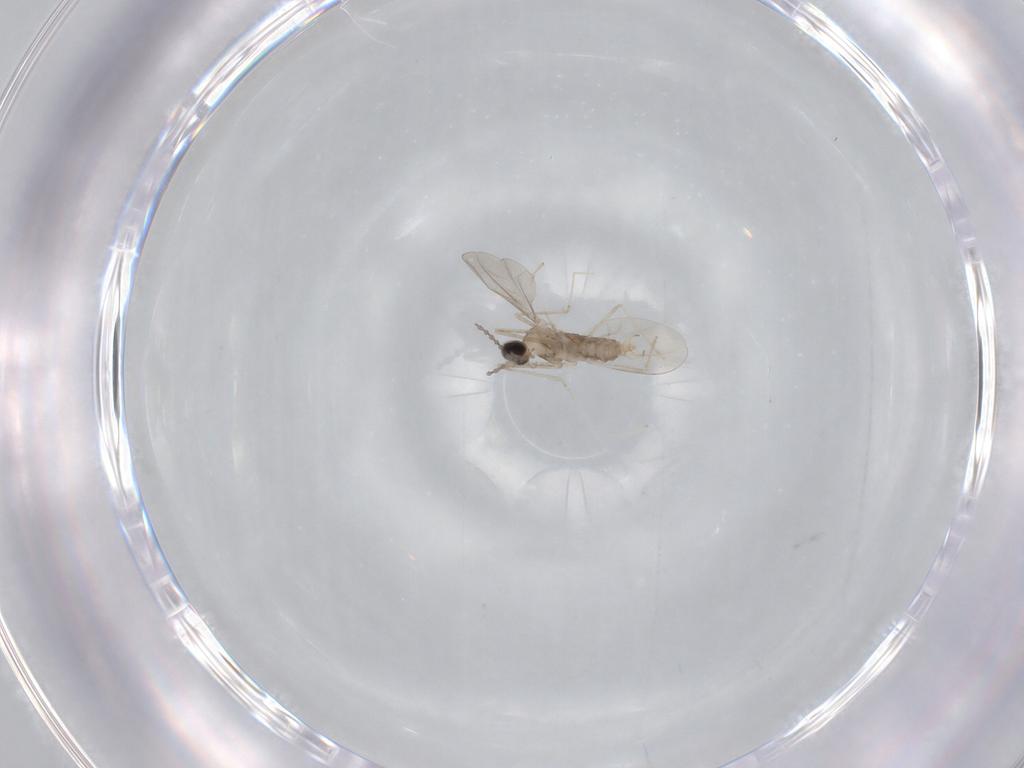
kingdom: Animalia
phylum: Arthropoda
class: Insecta
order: Diptera
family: Cecidomyiidae
